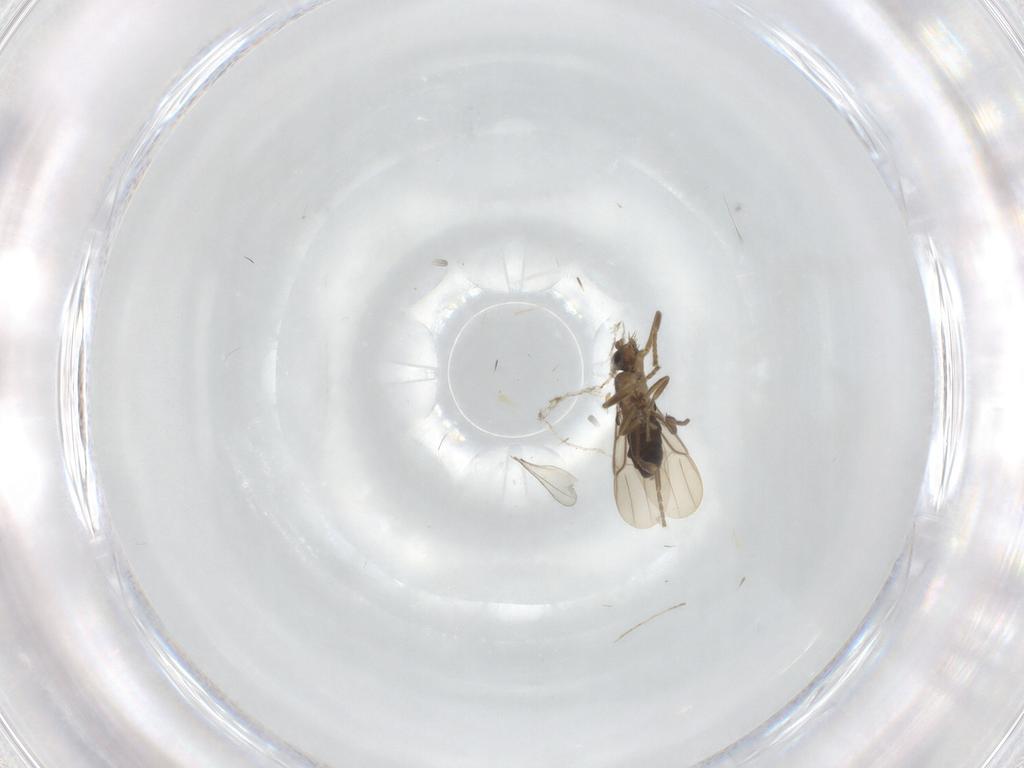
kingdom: Animalia
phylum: Arthropoda
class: Insecta
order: Diptera
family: Phoridae
